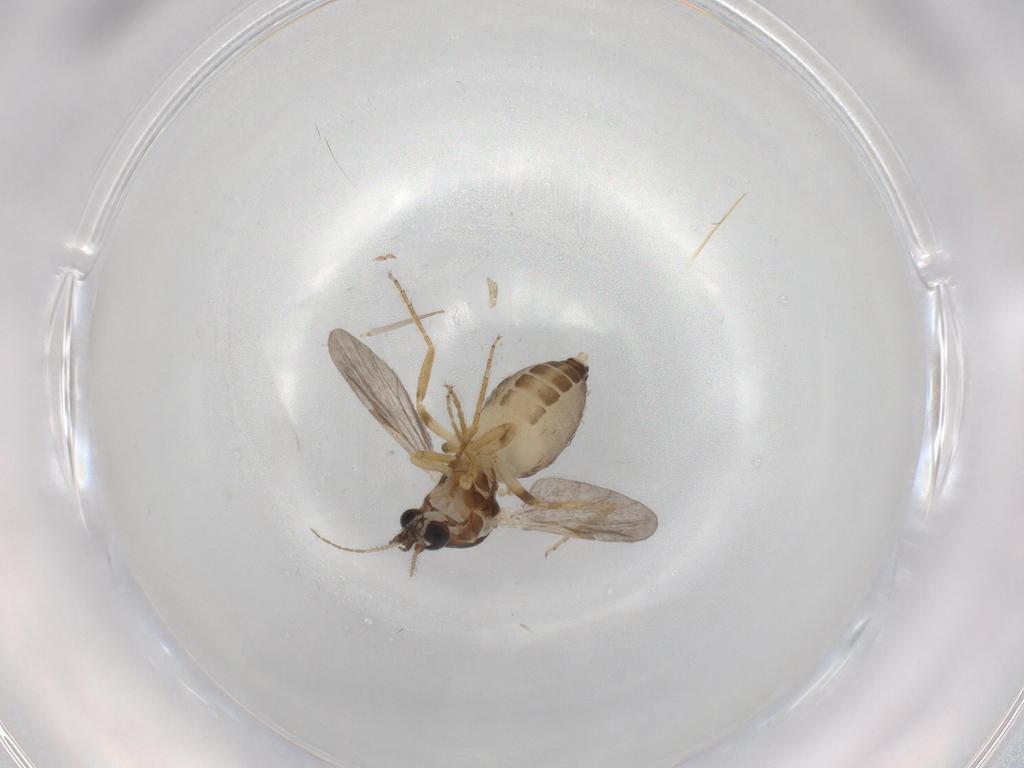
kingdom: Animalia
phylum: Arthropoda
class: Insecta
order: Diptera
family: Ceratopogonidae
